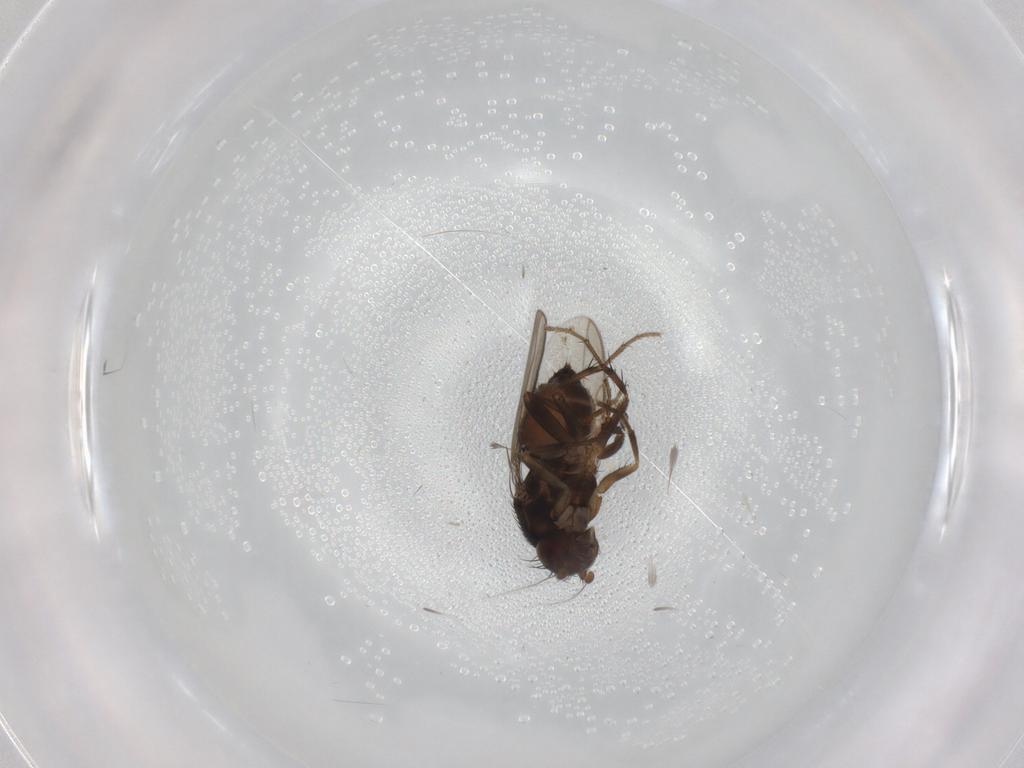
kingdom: Animalia
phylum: Arthropoda
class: Insecta
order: Diptera
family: Sphaeroceridae
